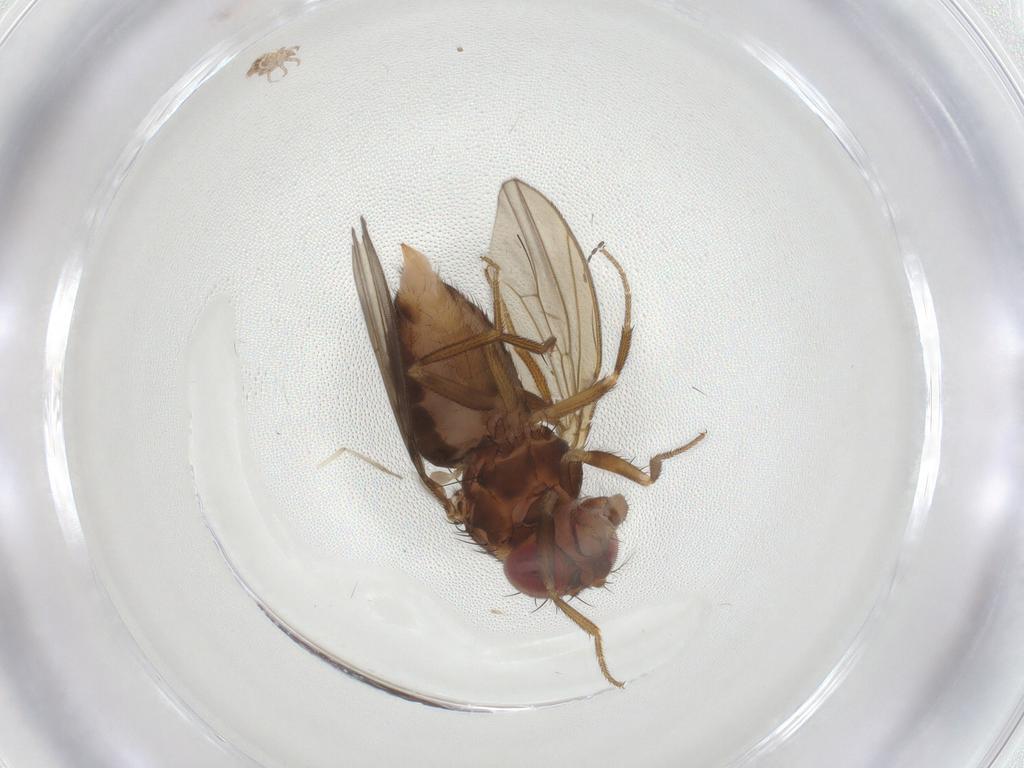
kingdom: Animalia
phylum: Arthropoda
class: Insecta
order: Diptera
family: Drosophilidae
